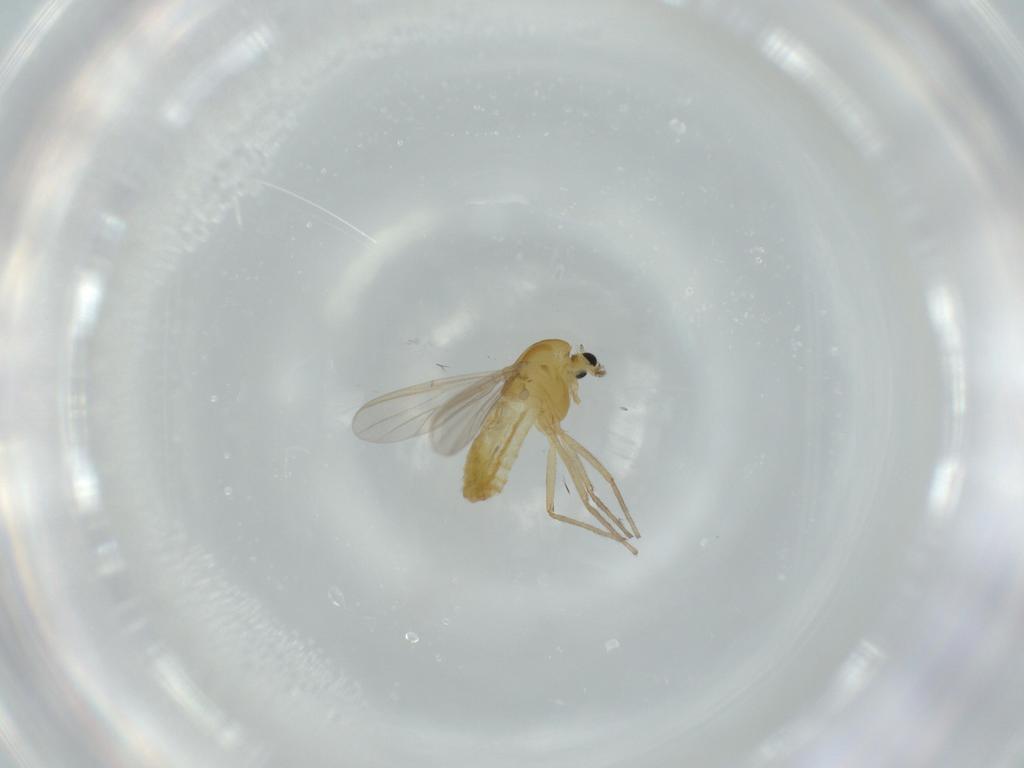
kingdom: Animalia
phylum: Arthropoda
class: Insecta
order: Diptera
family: Chironomidae
